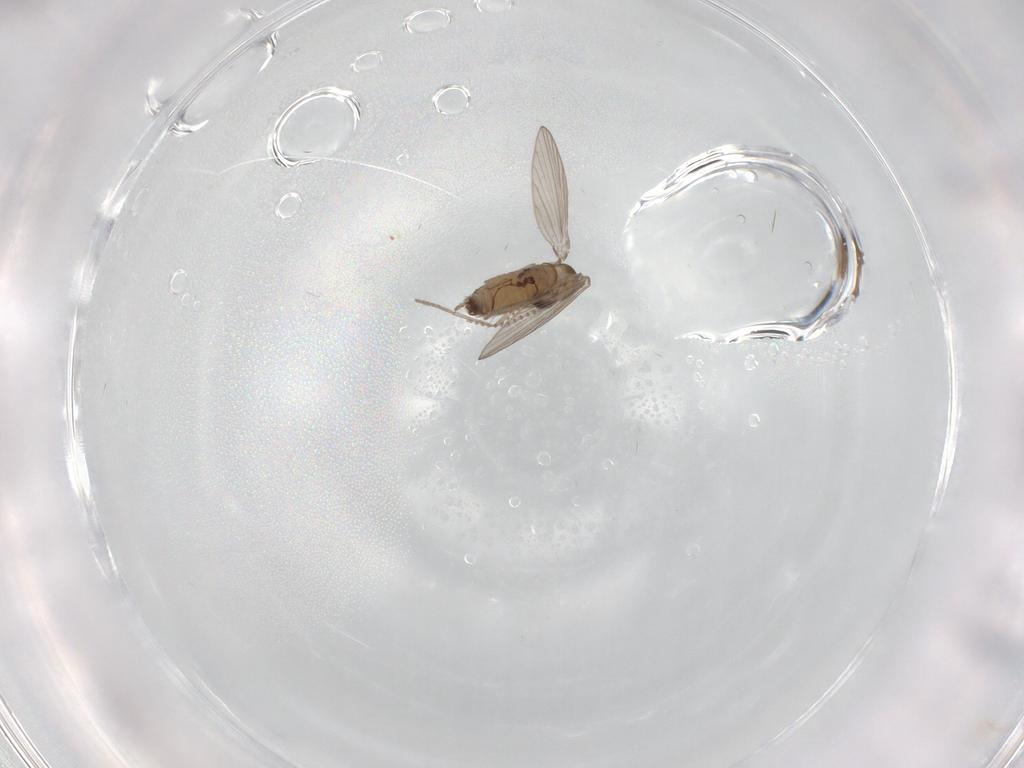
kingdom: Animalia
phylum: Arthropoda
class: Insecta
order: Diptera
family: Psychodidae
